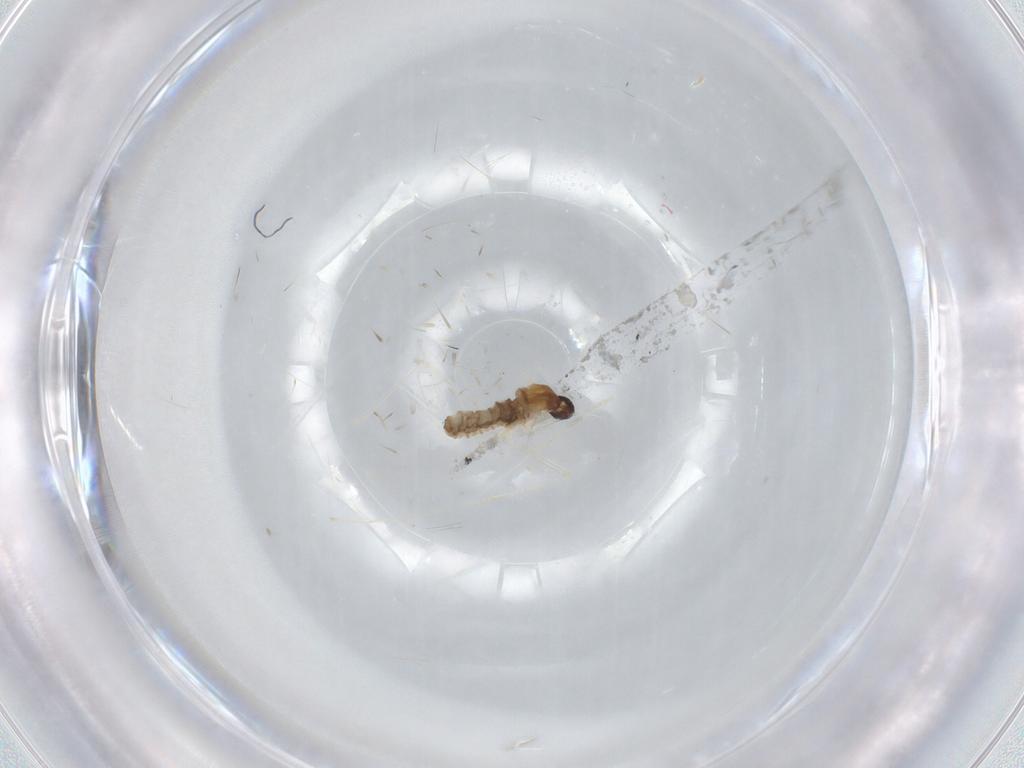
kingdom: Animalia
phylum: Arthropoda
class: Insecta
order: Diptera
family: Cecidomyiidae
